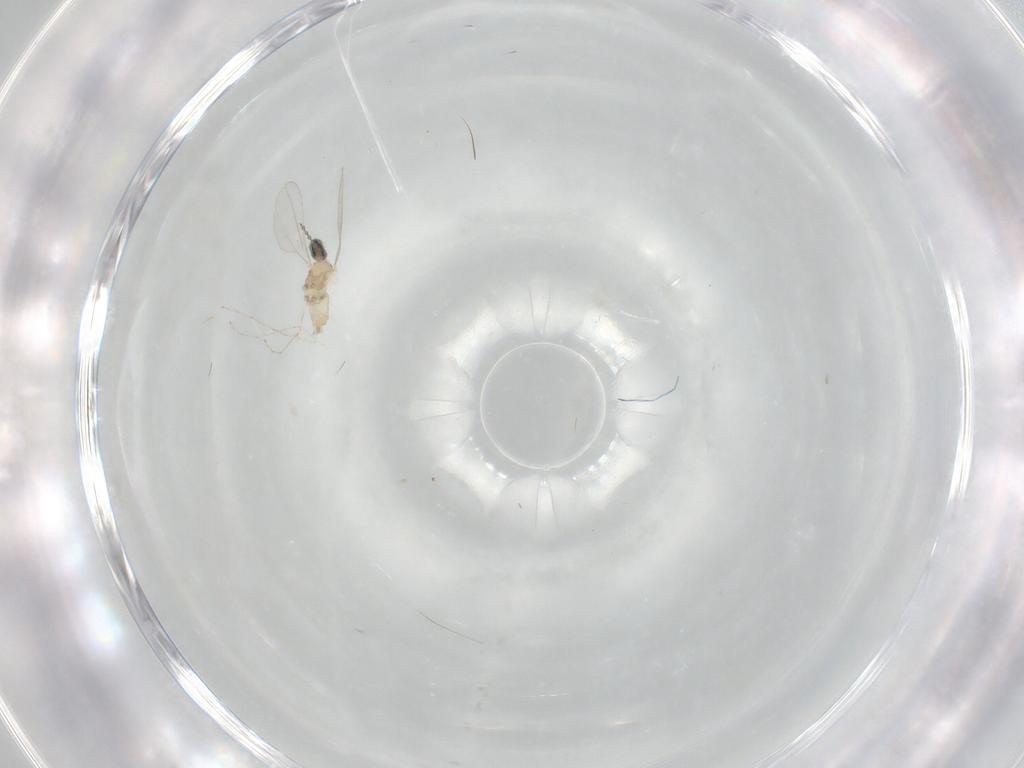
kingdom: Animalia
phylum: Arthropoda
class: Insecta
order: Diptera
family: Cecidomyiidae
